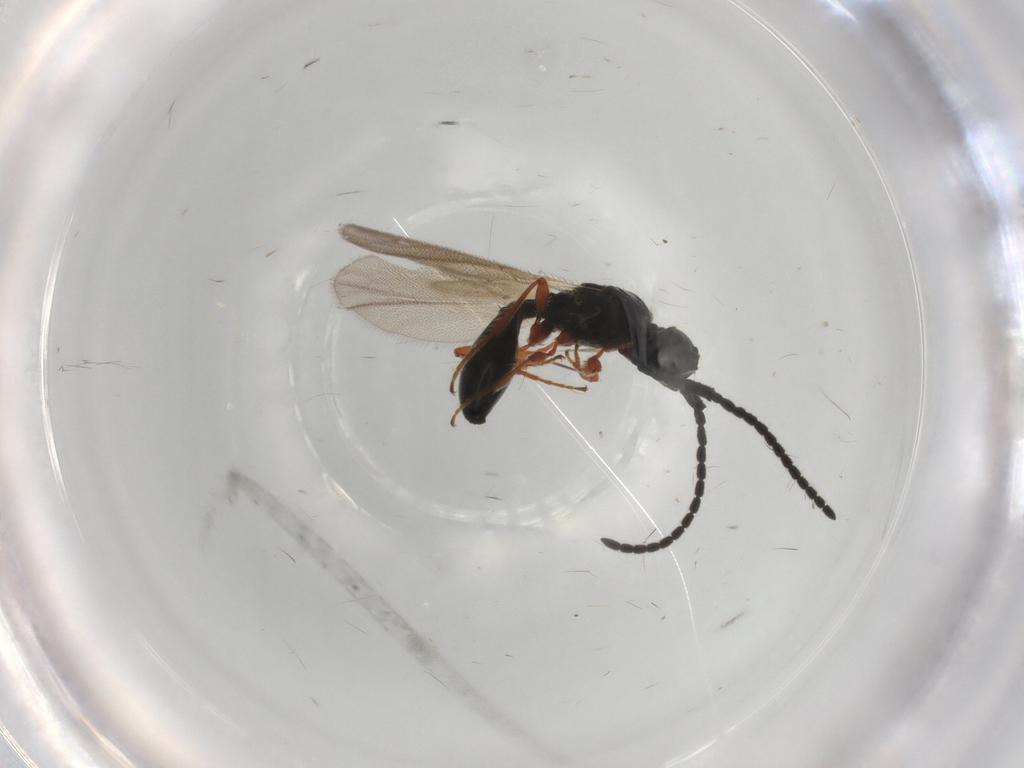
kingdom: Animalia
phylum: Arthropoda
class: Insecta
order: Hymenoptera
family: Diapriidae
